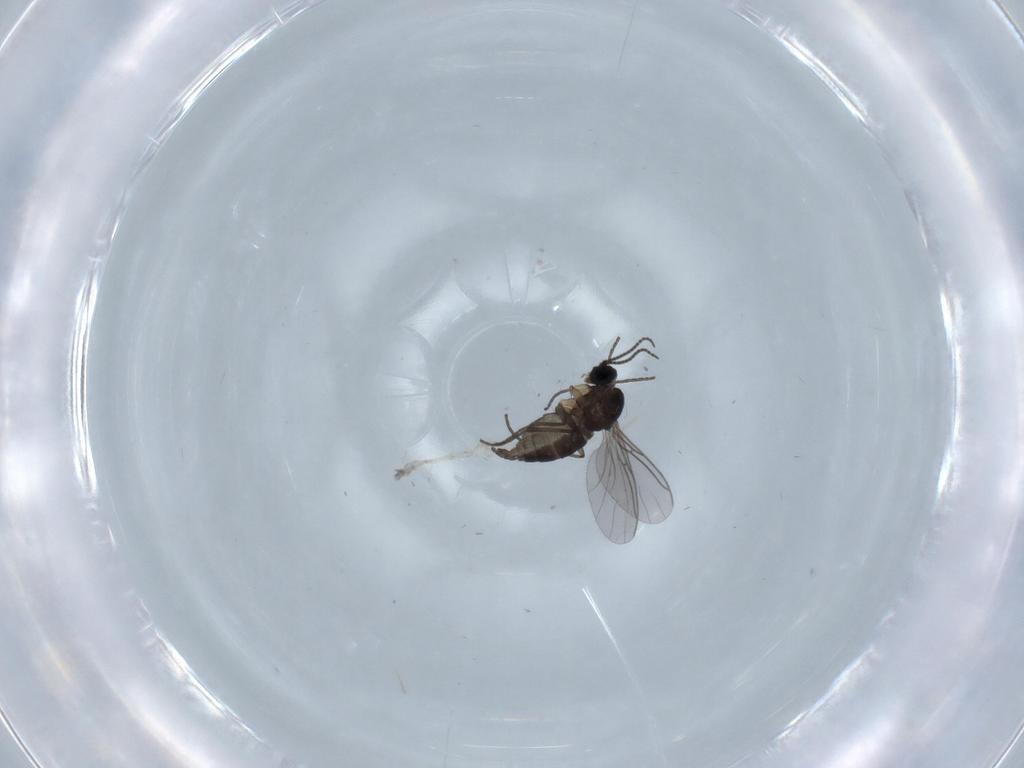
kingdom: Animalia
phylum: Arthropoda
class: Insecta
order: Diptera
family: Sciaridae
